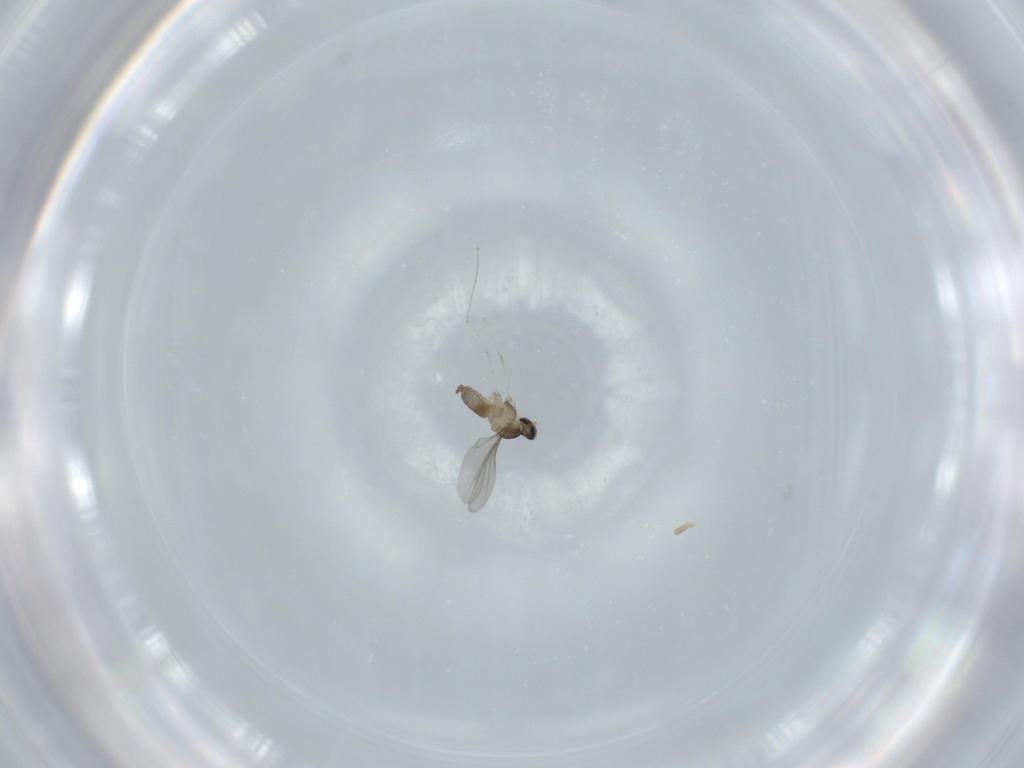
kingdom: Animalia
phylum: Arthropoda
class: Insecta
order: Diptera
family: Cecidomyiidae
